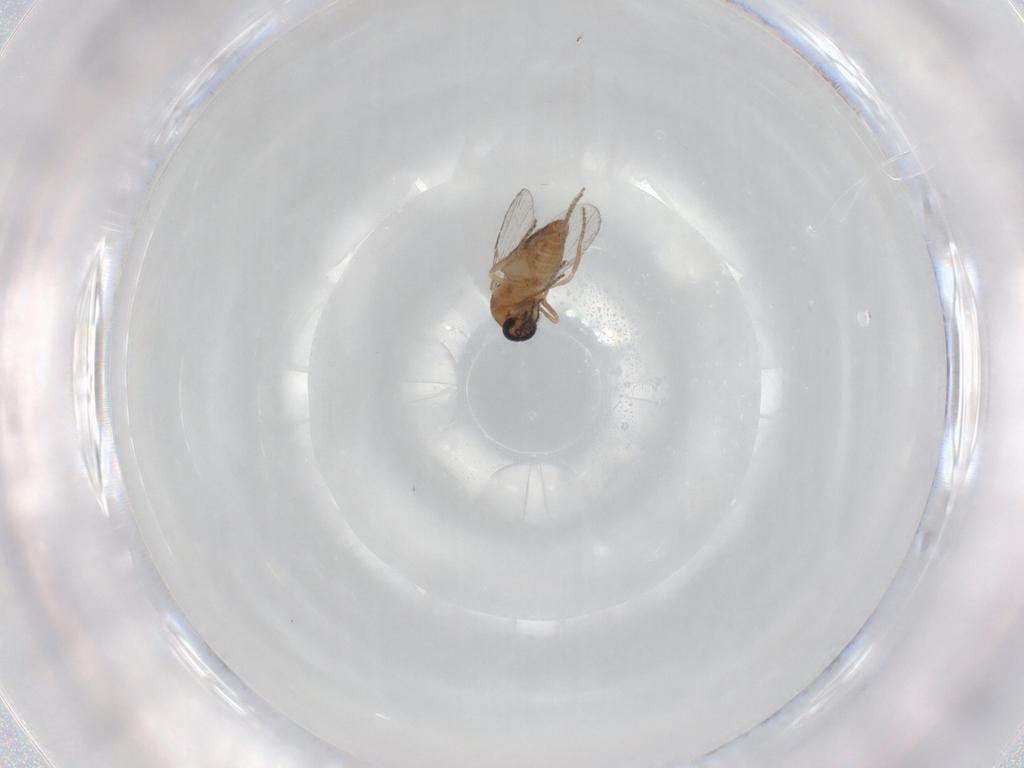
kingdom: Animalia
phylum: Arthropoda
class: Insecta
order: Diptera
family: Ceratopogonidae
